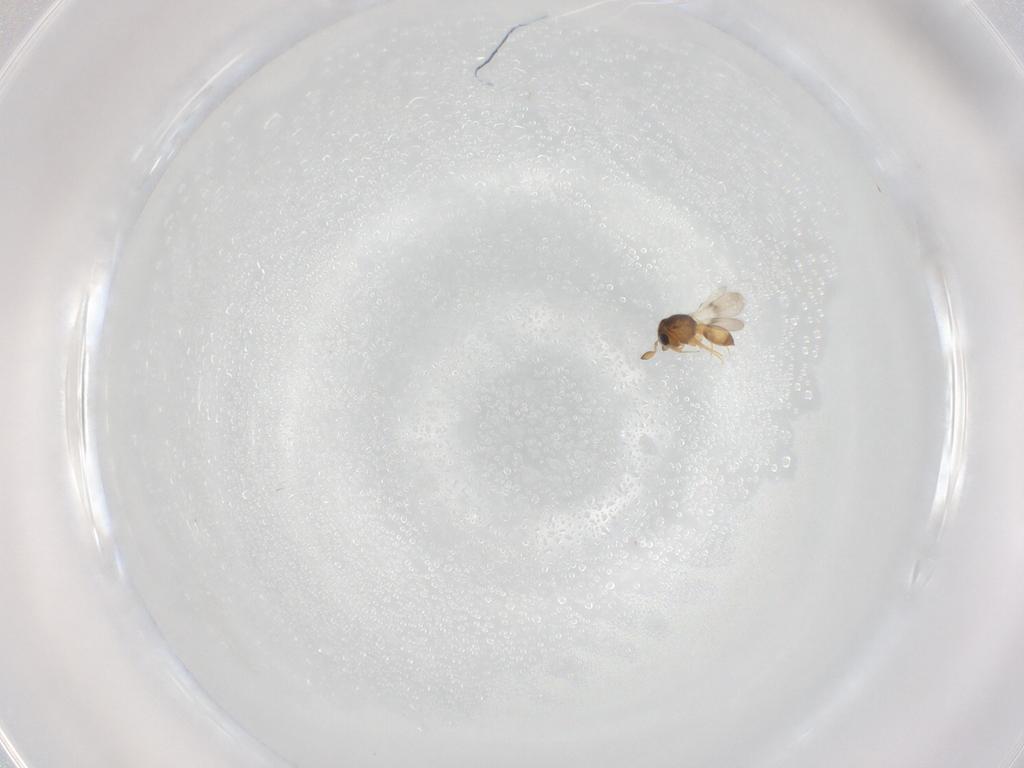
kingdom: Animalia
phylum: Arthropoda
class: Insecta
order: Hymenoptera
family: Scelionidae
